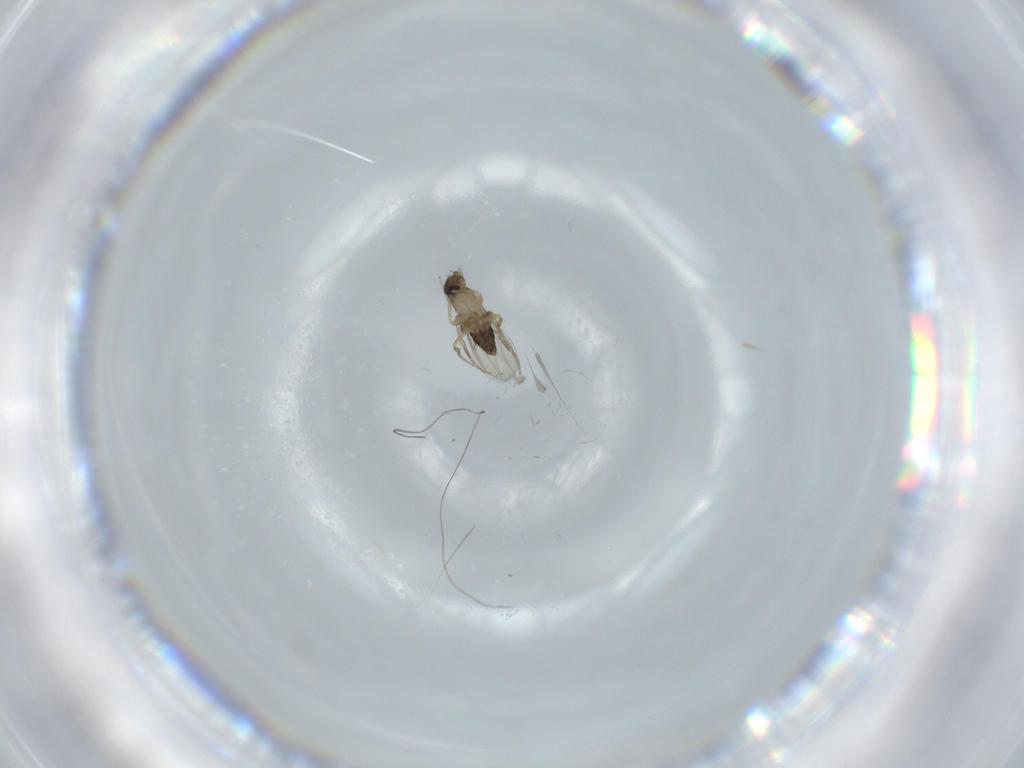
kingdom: Animalia
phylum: Arthropoda
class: Insecta
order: Diptera
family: Phoridae
